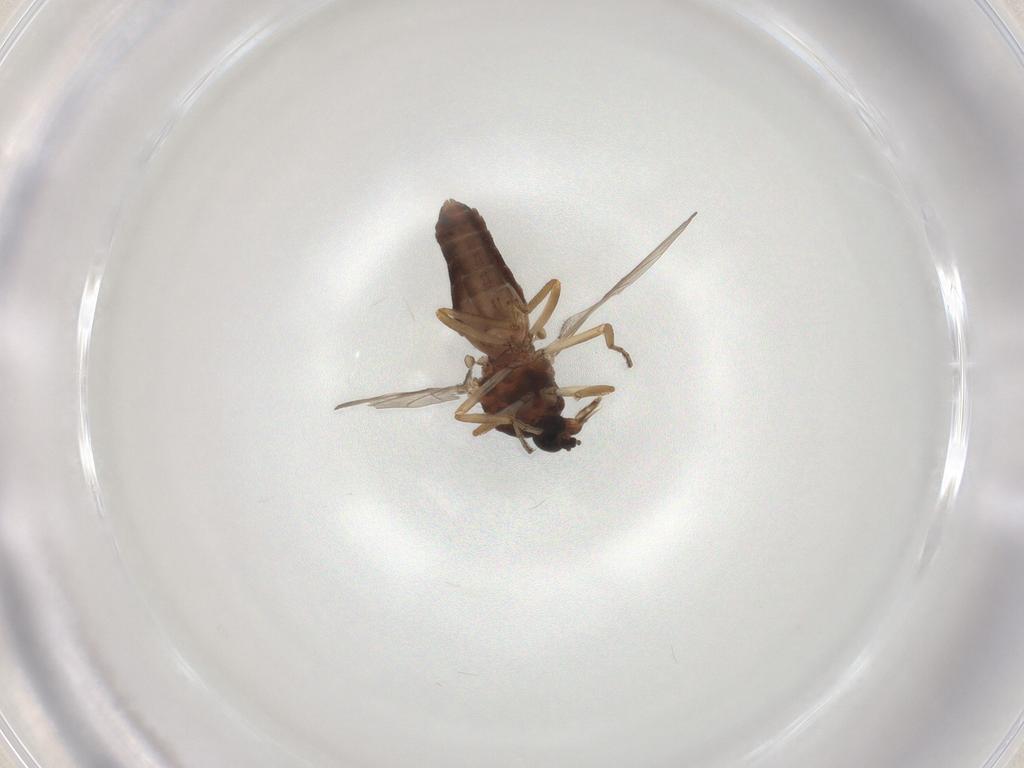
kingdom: Animalia
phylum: Arthropoda
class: Insecta
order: Diptera
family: Ceratopogonidae
